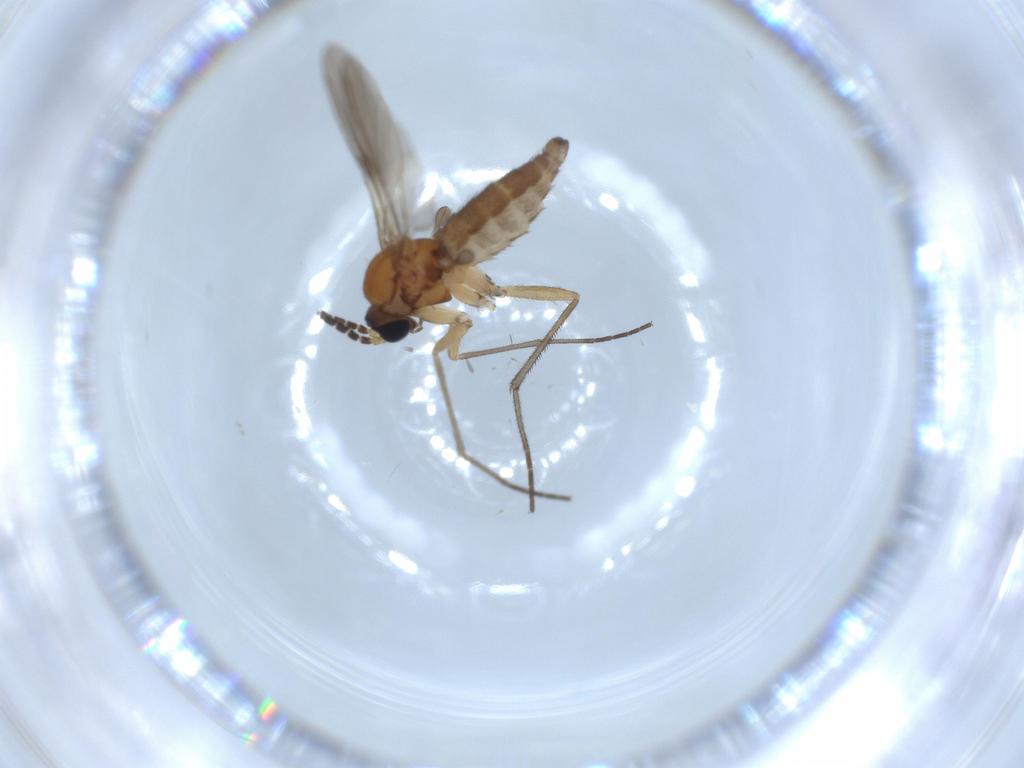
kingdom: Animalia
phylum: Arthropoda
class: Insecta
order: Diptera
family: Sciaridae
